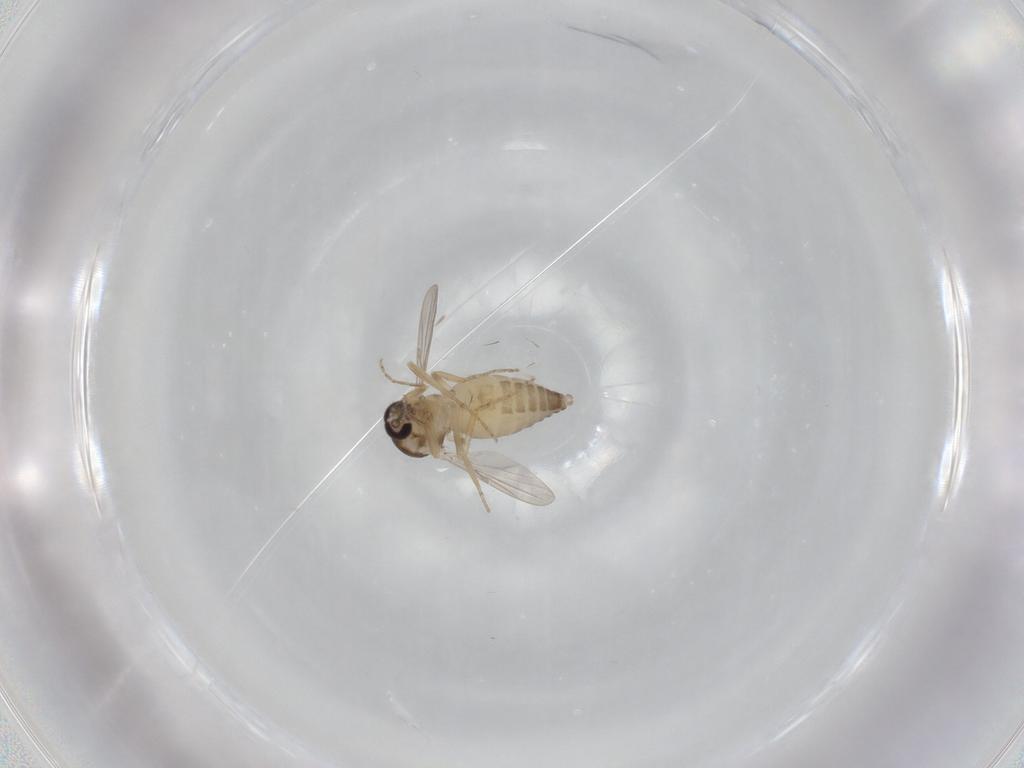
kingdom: Animalia
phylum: Arthropoda
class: Insecta
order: Diptera
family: Ceratopogonidae
